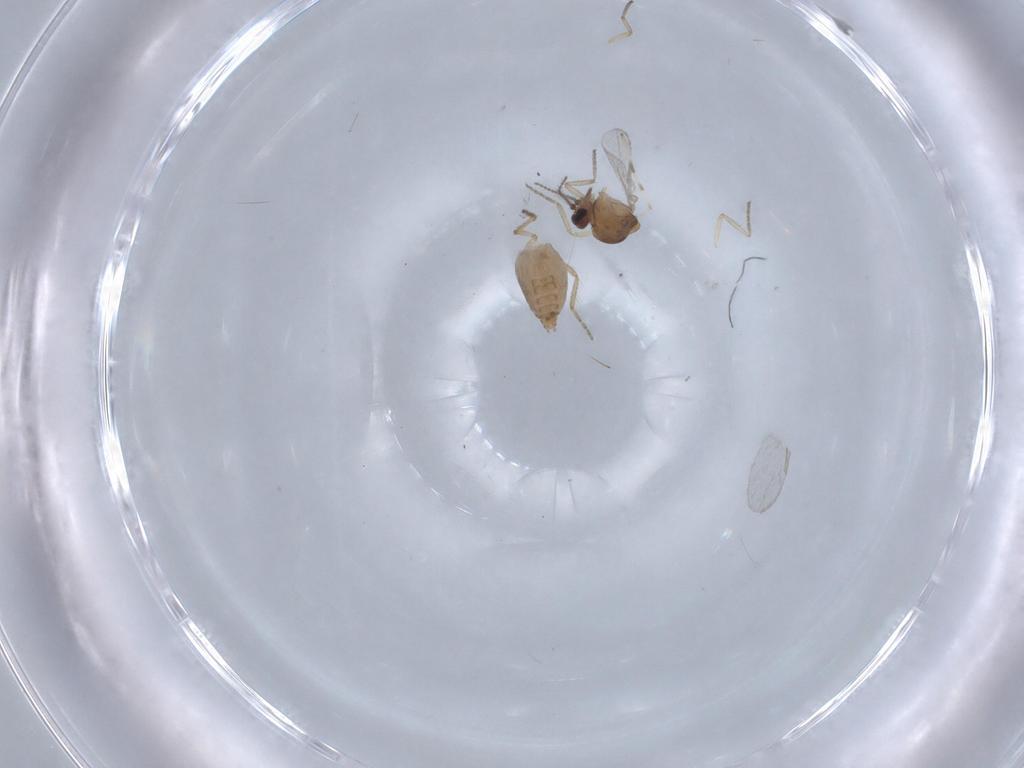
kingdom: Animalia
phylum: Arthropoda
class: Insecta
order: Diptera
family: Ceratopogonidae
